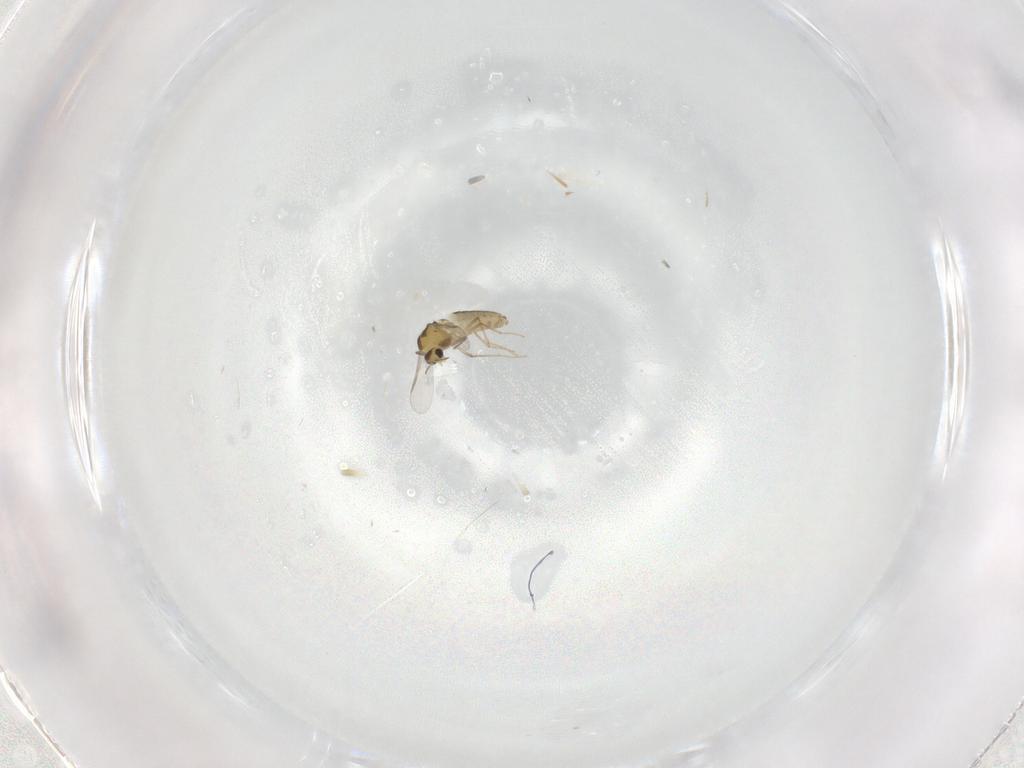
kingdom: Animalia
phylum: Arthropoda
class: Insecta
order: Diptera
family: Chironomidae
